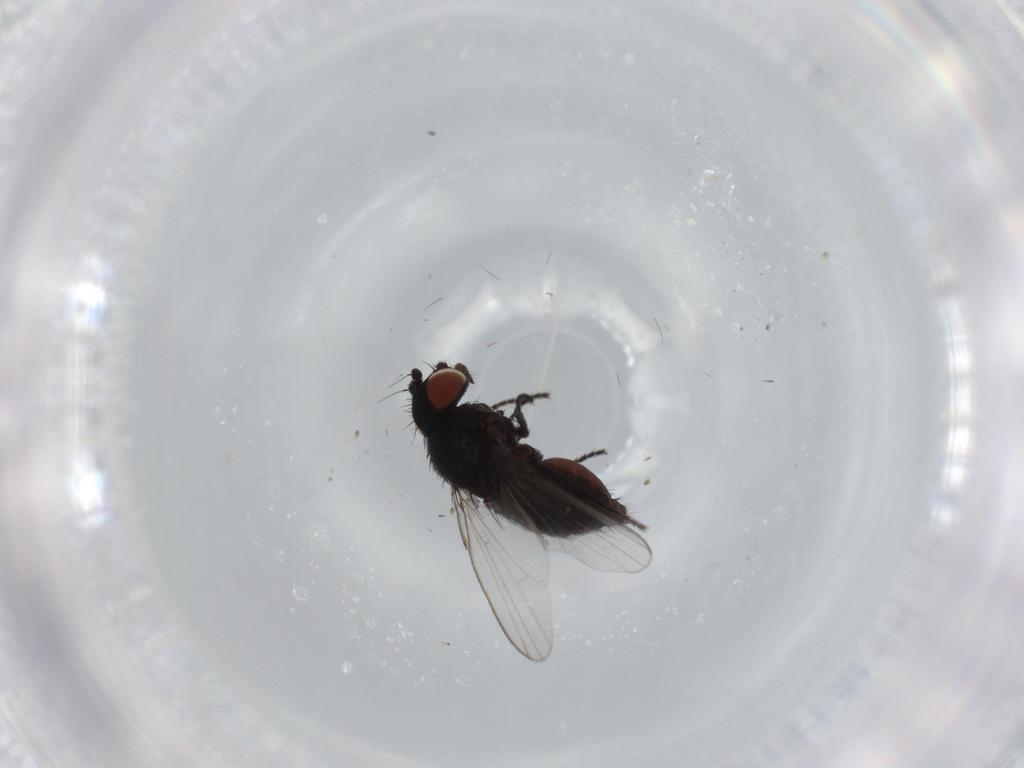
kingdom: Animalia
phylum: Arthropoda
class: Insecta
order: Diptera
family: Milichiidae
